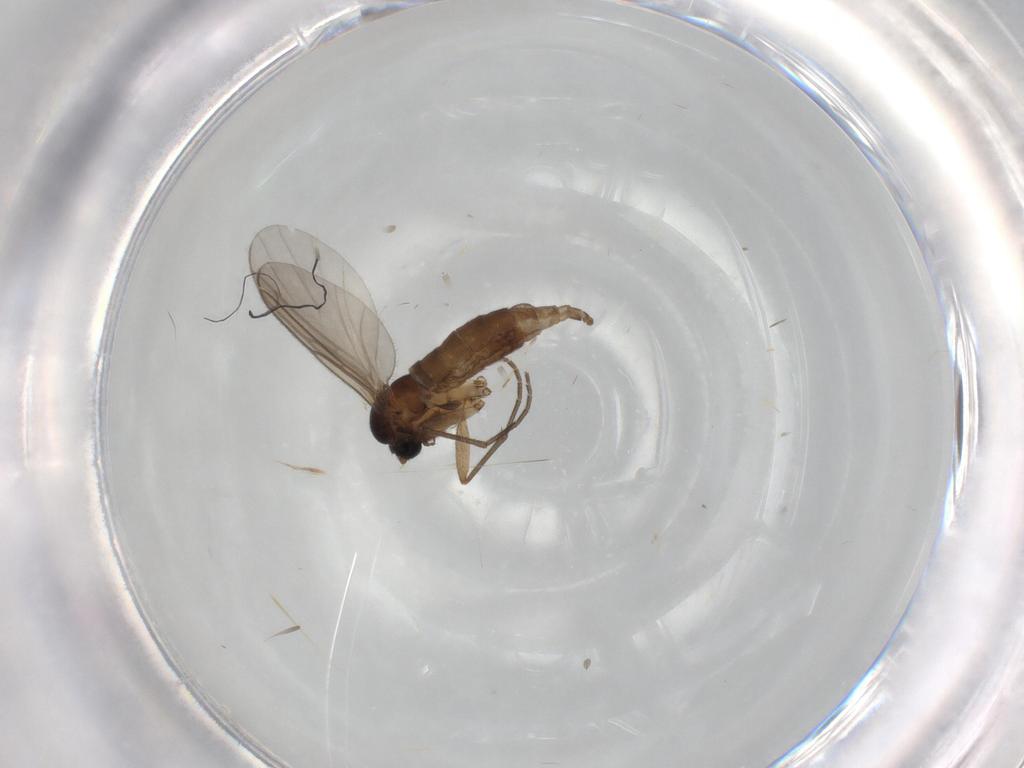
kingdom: Animalia
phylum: Arthropoda
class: Insecta
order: Diptera
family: Sciaridae
